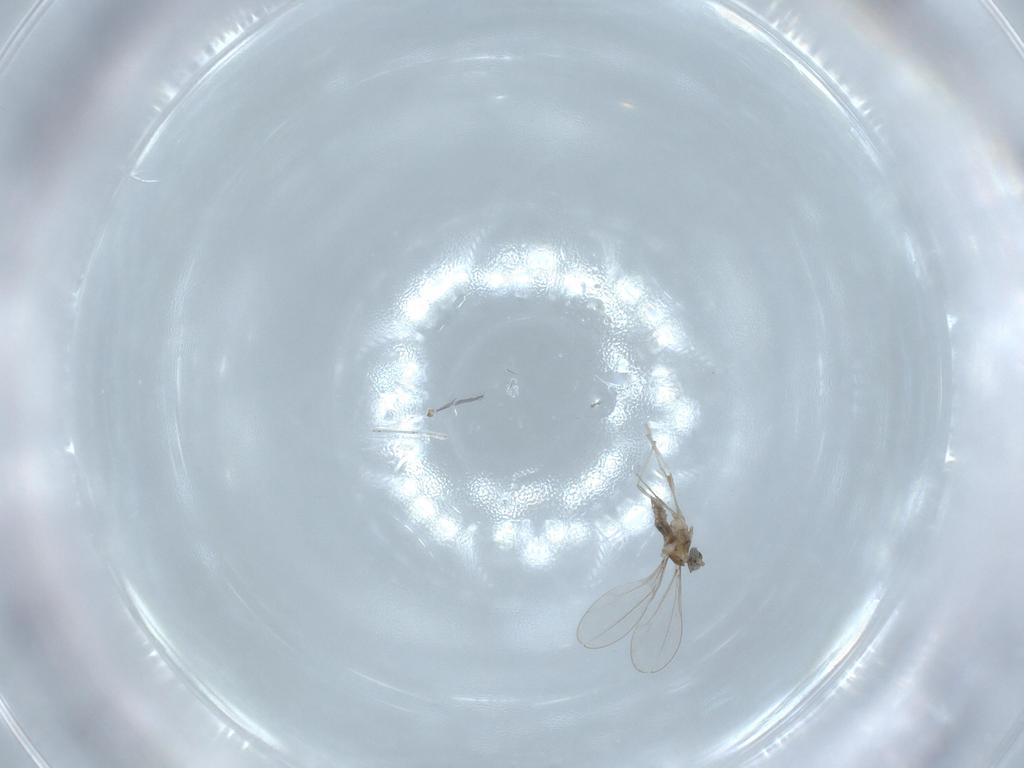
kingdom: Animalia
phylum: Arthropoda
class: Insecta
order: Diptera
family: Cecidomyiidae
